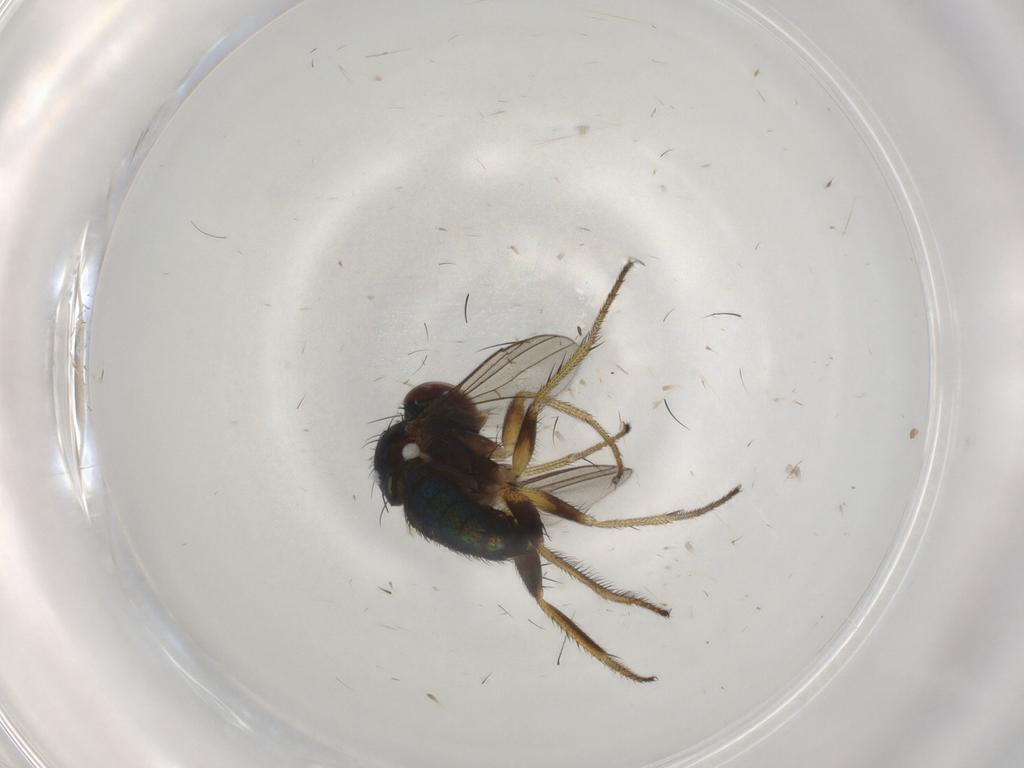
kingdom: Animalia
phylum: Arthropoda
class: Insecta
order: Diptera
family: Dolichopodidae
